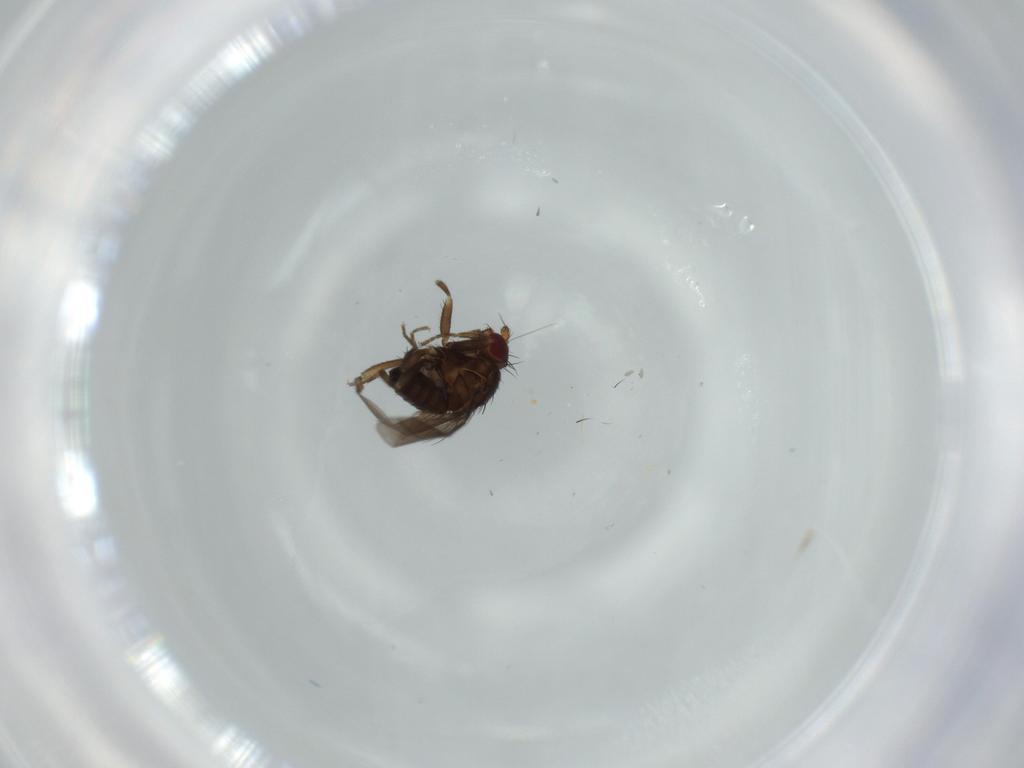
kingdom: Animalia
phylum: Arthropoda
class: Insecta
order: Diptera
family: Sphaeroceridae
